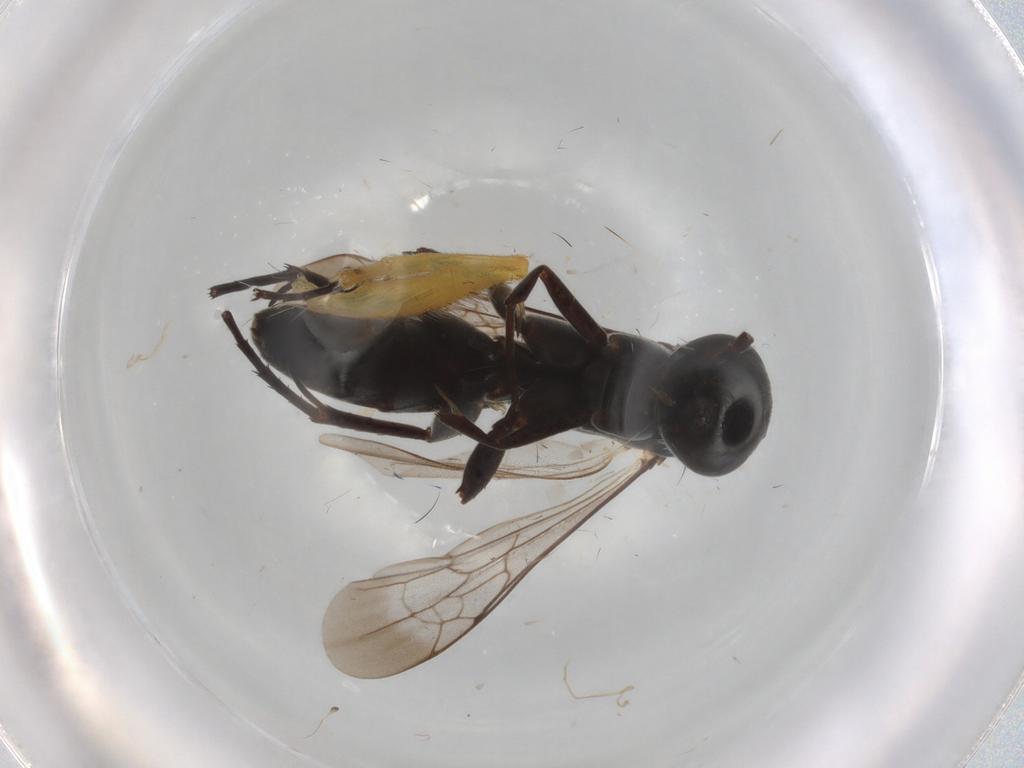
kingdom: Animalia
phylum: Arthropoda
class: Insecta
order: Hymenoptera
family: Pompilidae
